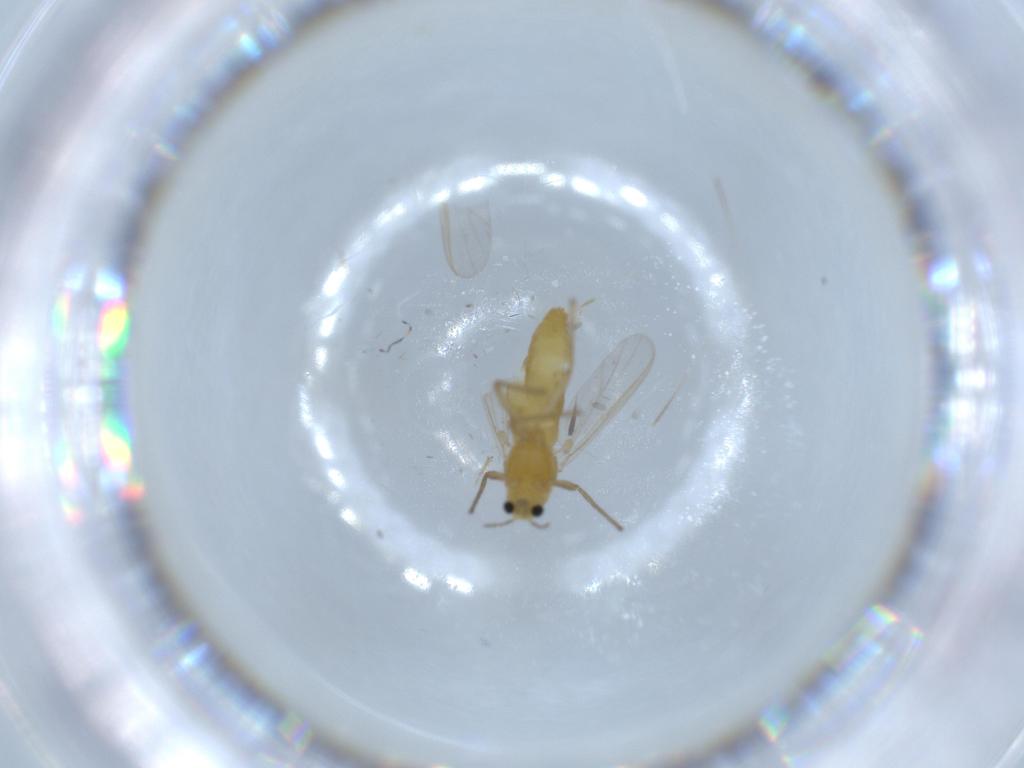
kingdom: Animalia
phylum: Arthropoda
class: Insecta
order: Diptera
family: Chironomidae
